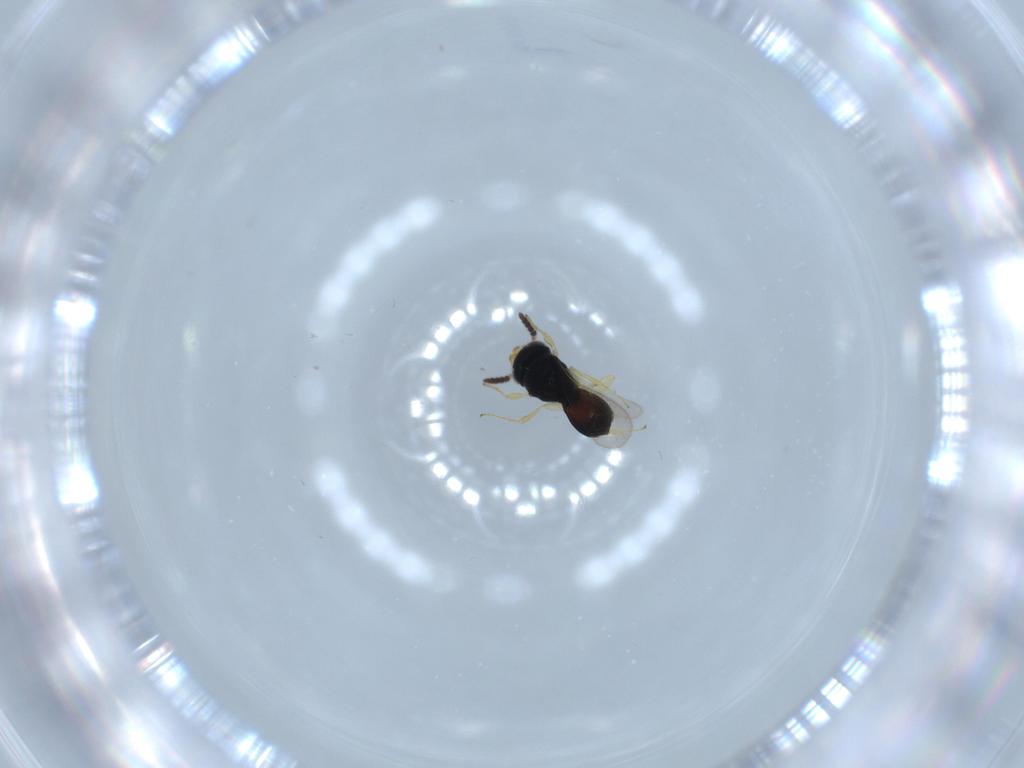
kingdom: Animalia
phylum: Arthropoda
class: Insecta
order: Hymenoptera
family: Scelionidae
